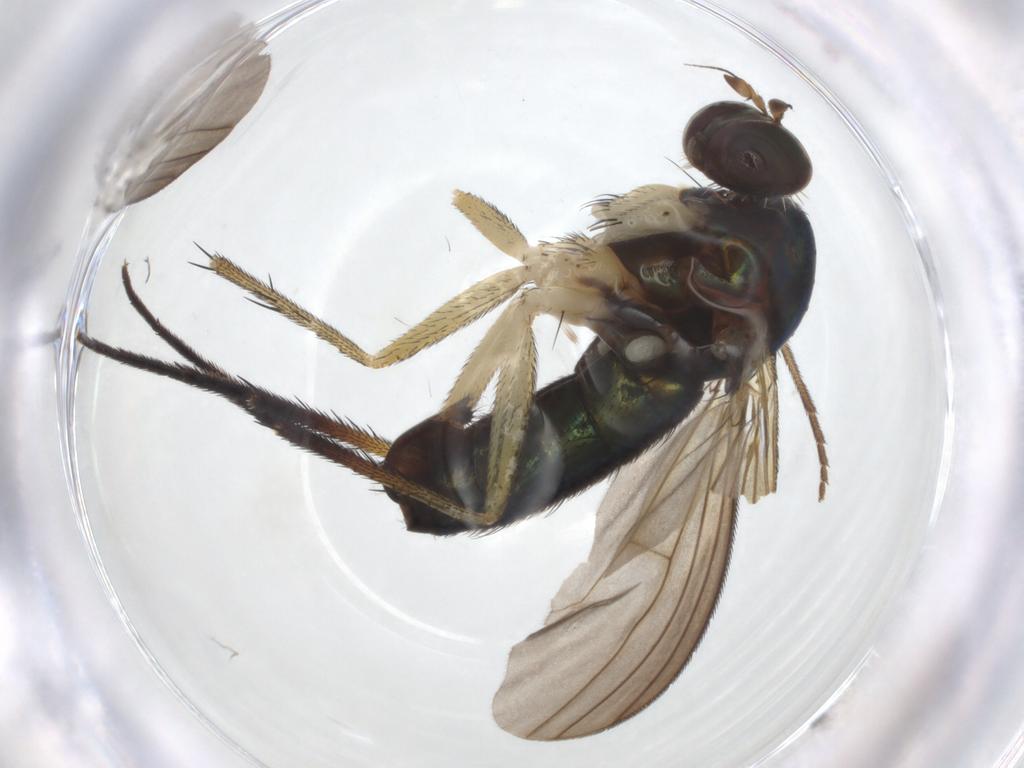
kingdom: Animalia
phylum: Arthropoda
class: Insecta
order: Diptera
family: Dolichopodidae
